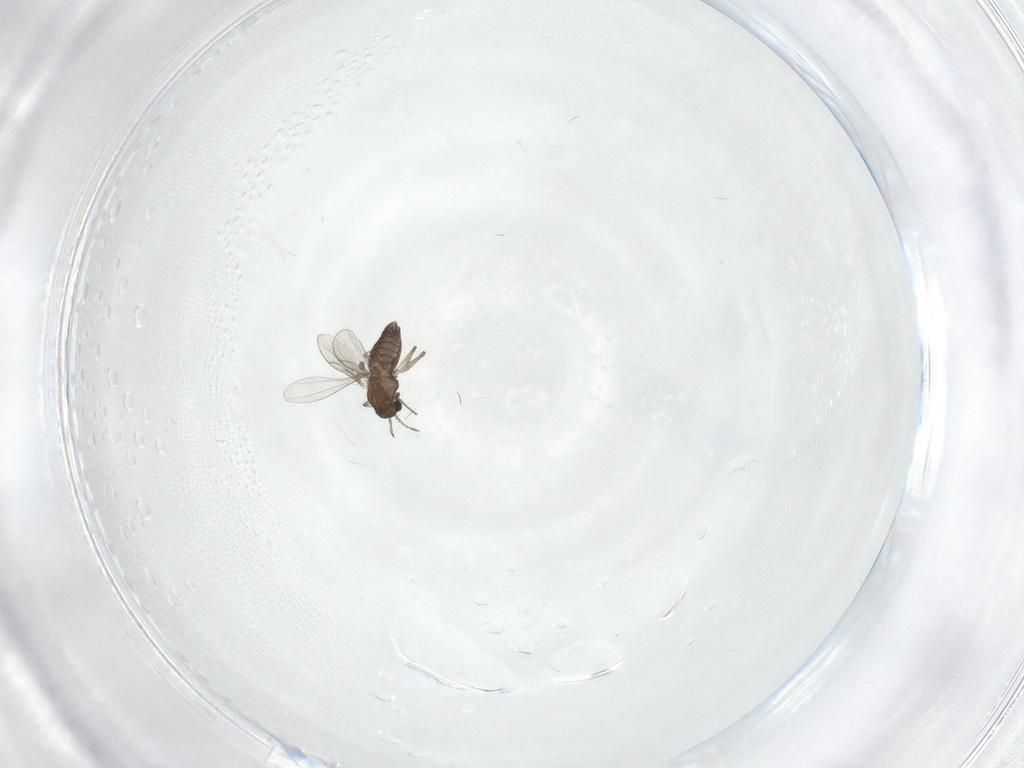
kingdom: Animalia
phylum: Arthropoda
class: Insecta
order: Diptera
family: Chironomidae
